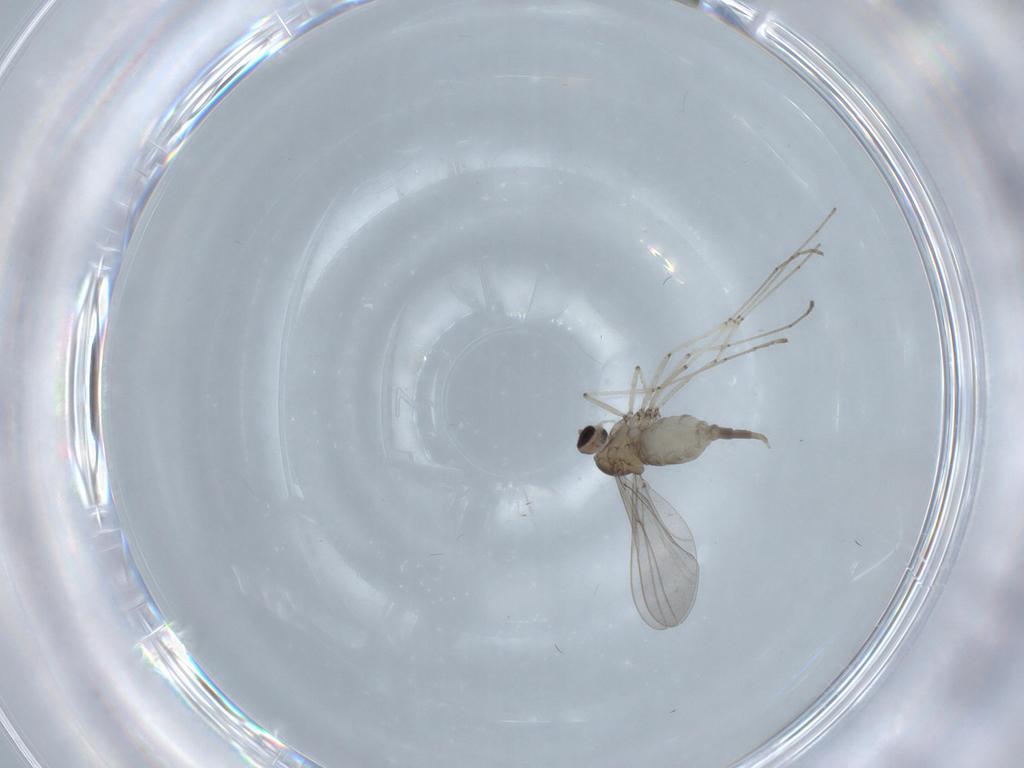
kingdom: Animalia
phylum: Arthropoda
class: Insecta
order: Diptera
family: Cecidomyiidae
